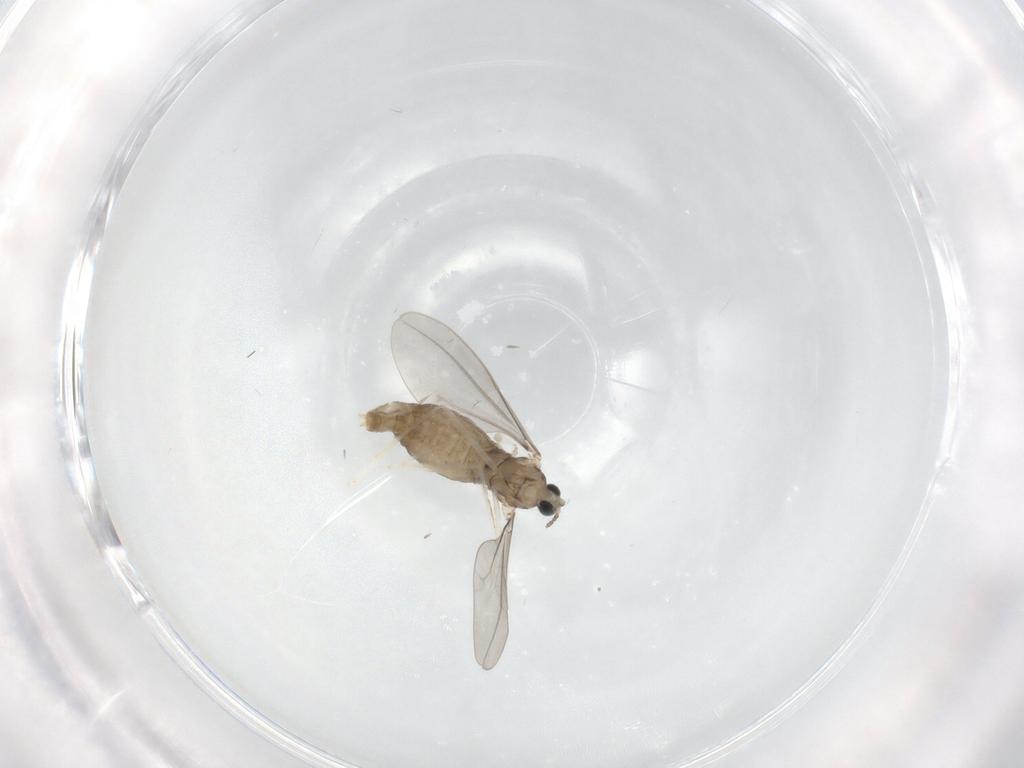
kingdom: Animalia
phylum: Arthropoda
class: Insecta
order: Diptera
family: Cecidomyiidae
